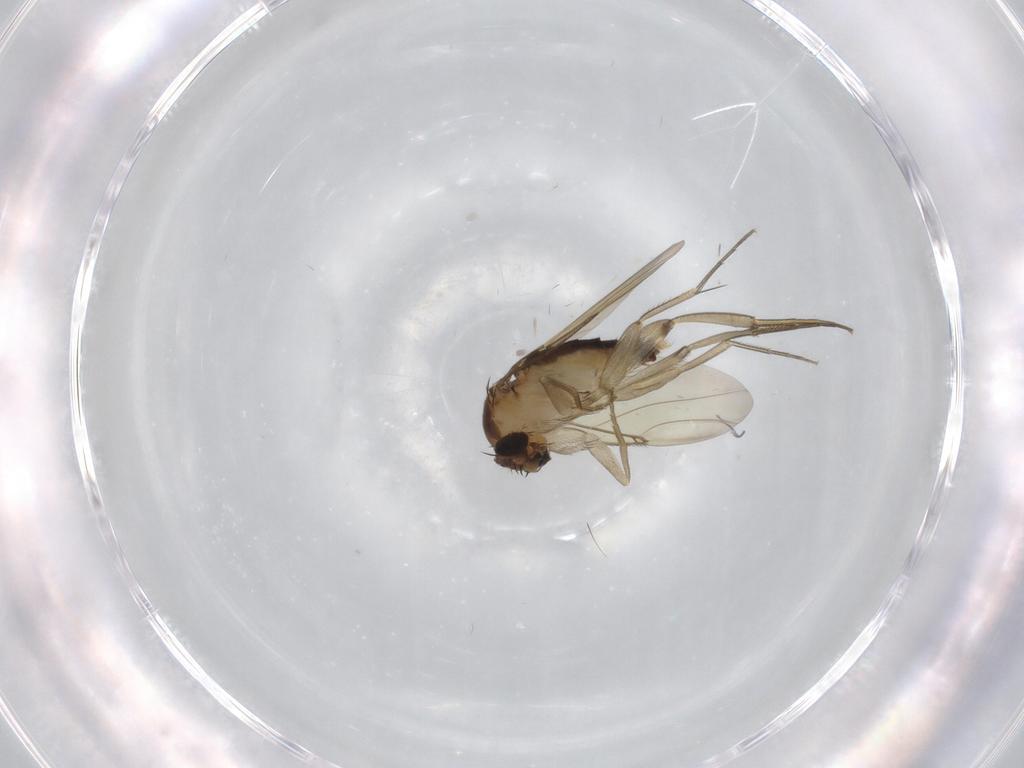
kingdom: Animalia
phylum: Arthropoda
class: Insecta
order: Diptera
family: Phoridae
